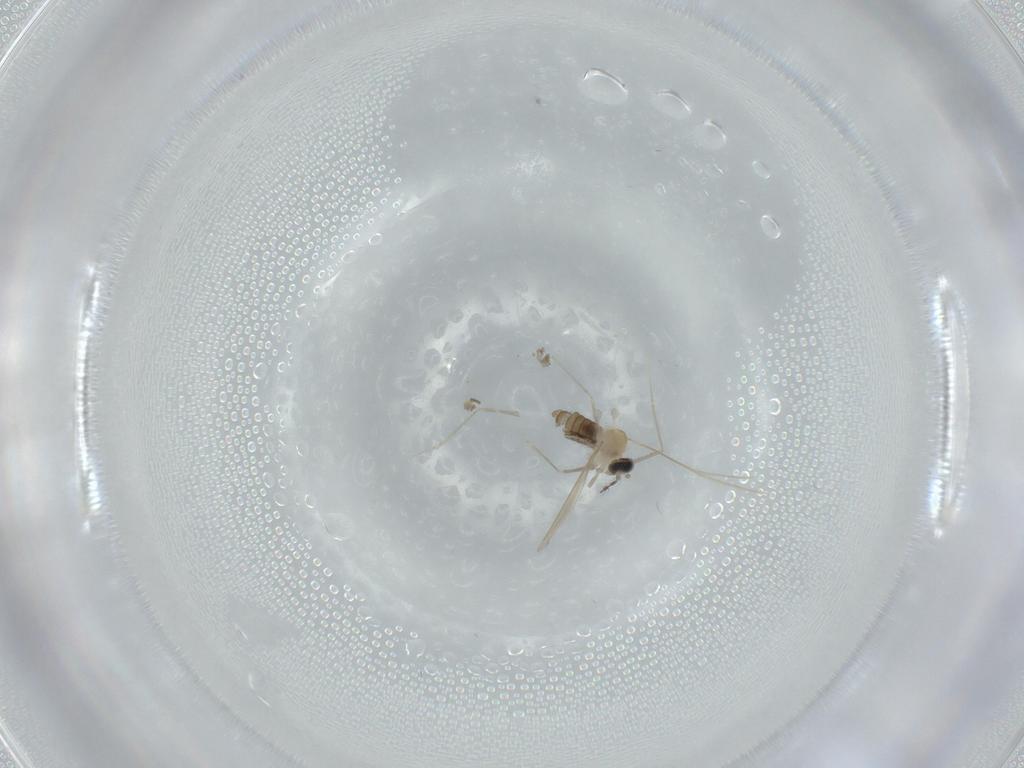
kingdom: Animalia
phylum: Arthropoda
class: Insecta
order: Diptera
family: Cecidomyiidae
